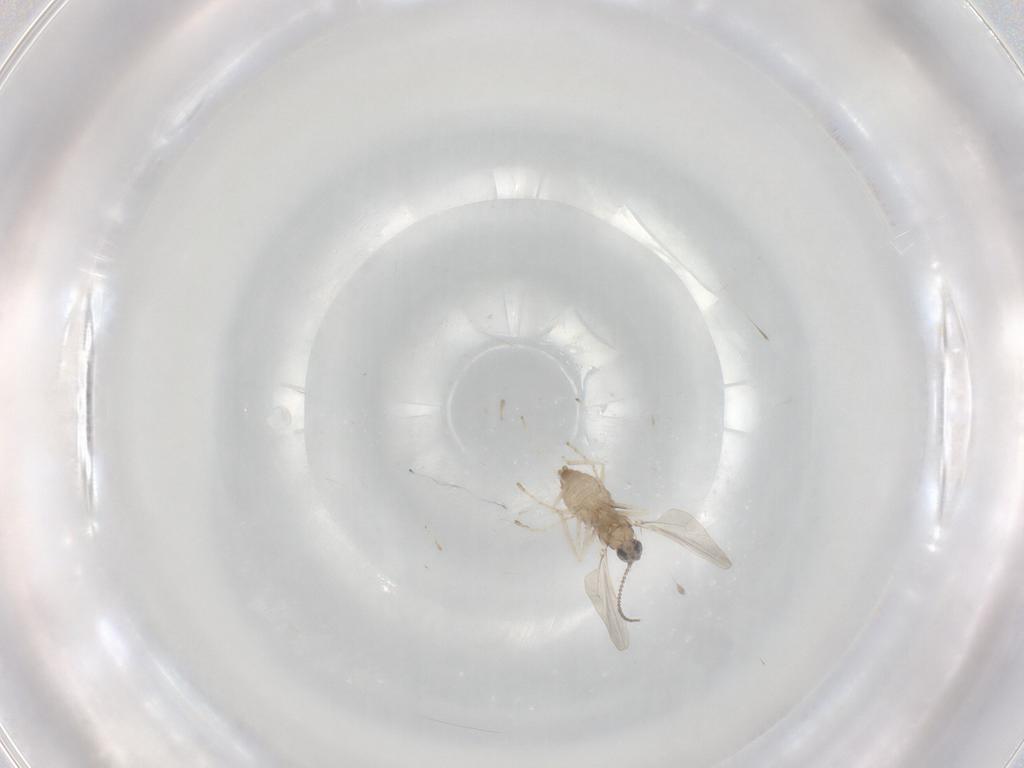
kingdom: Animalia
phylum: Arthropoda
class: Insecta
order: Diptera
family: Cecidomyiidae
